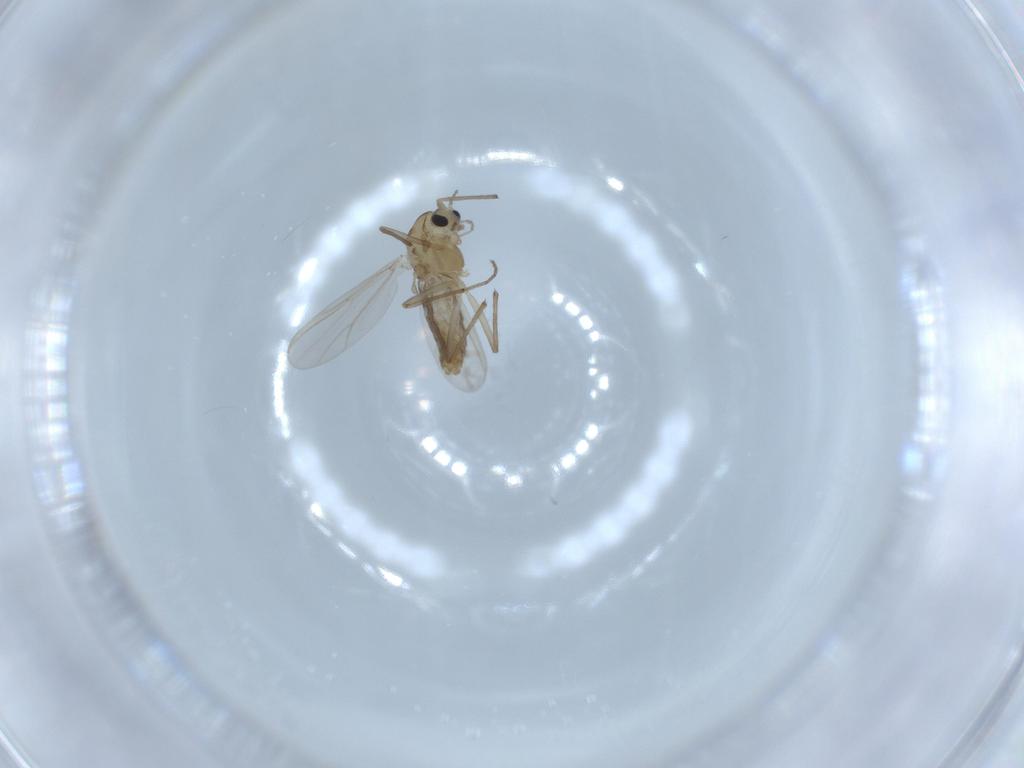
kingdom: Animalia
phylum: Arthropoda
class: Insecta
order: Diptera
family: Chironomidae
